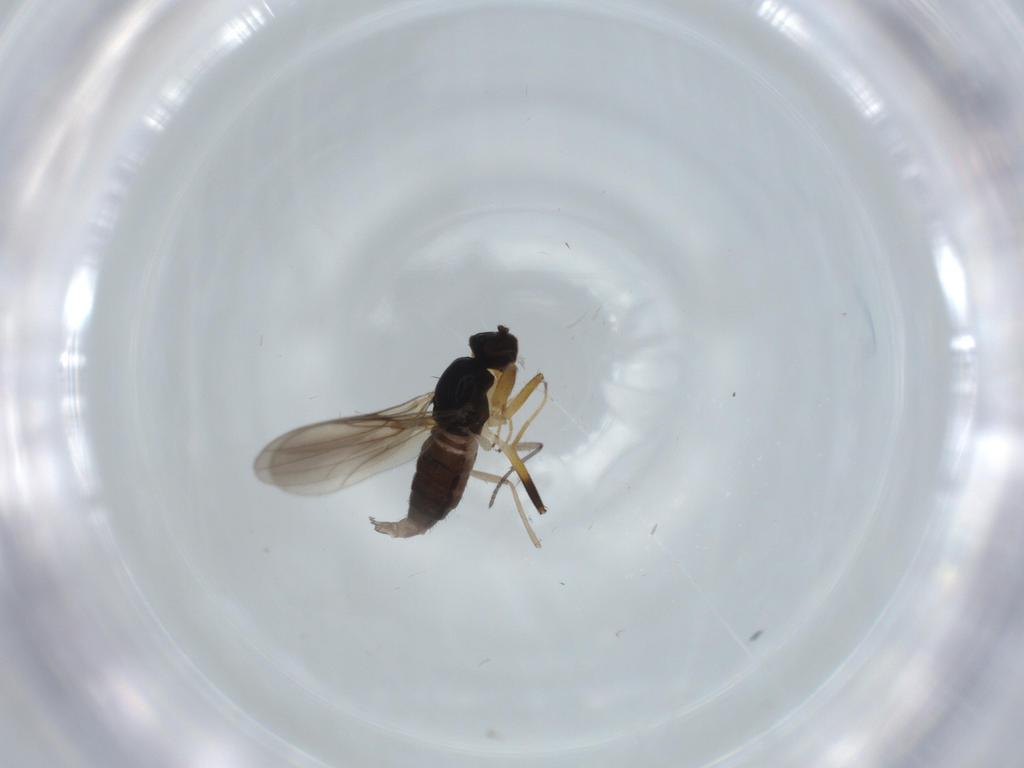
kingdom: Animalia
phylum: Arthropoda
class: Insecta
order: Diptera
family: Hybotidae
